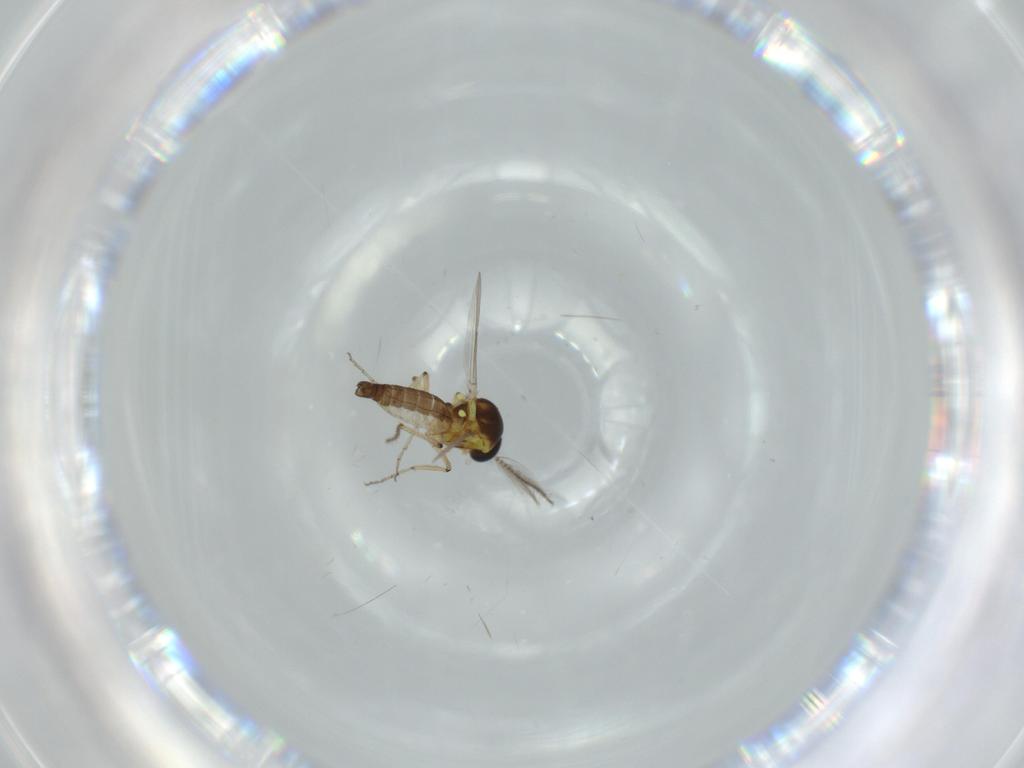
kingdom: Animalia
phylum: Arthropoda
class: Insecta
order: Diptera
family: Ceratopogonidae
